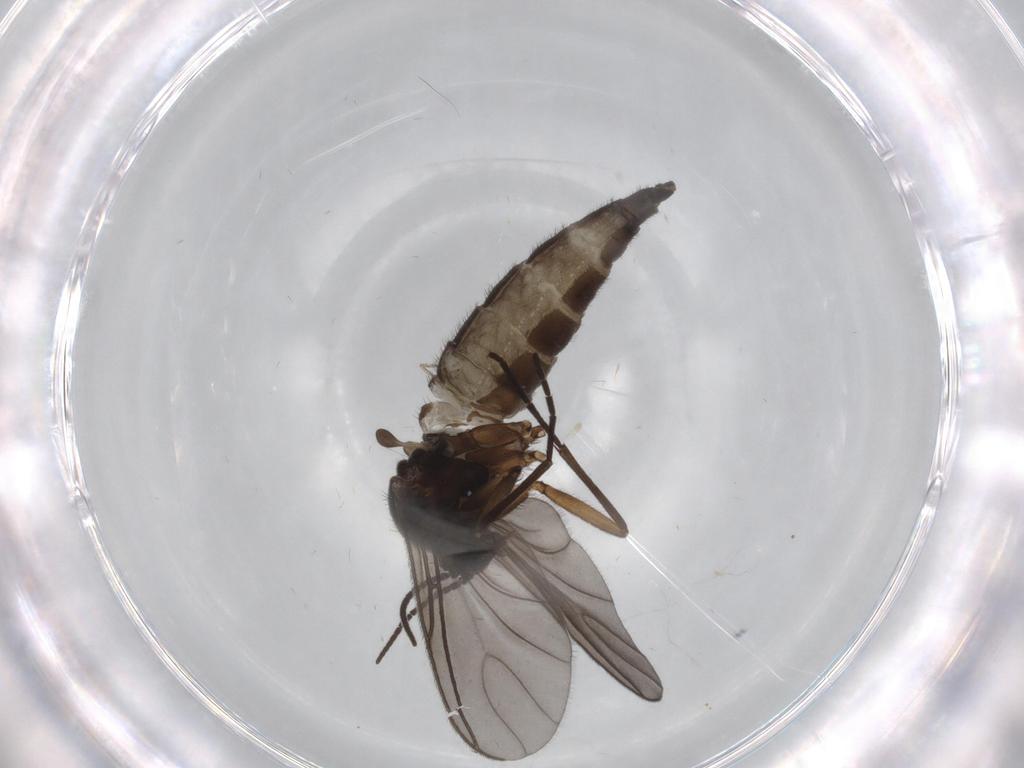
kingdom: Animalia
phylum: Arthropoda
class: Insecta
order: Diptera
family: Sciaridae
